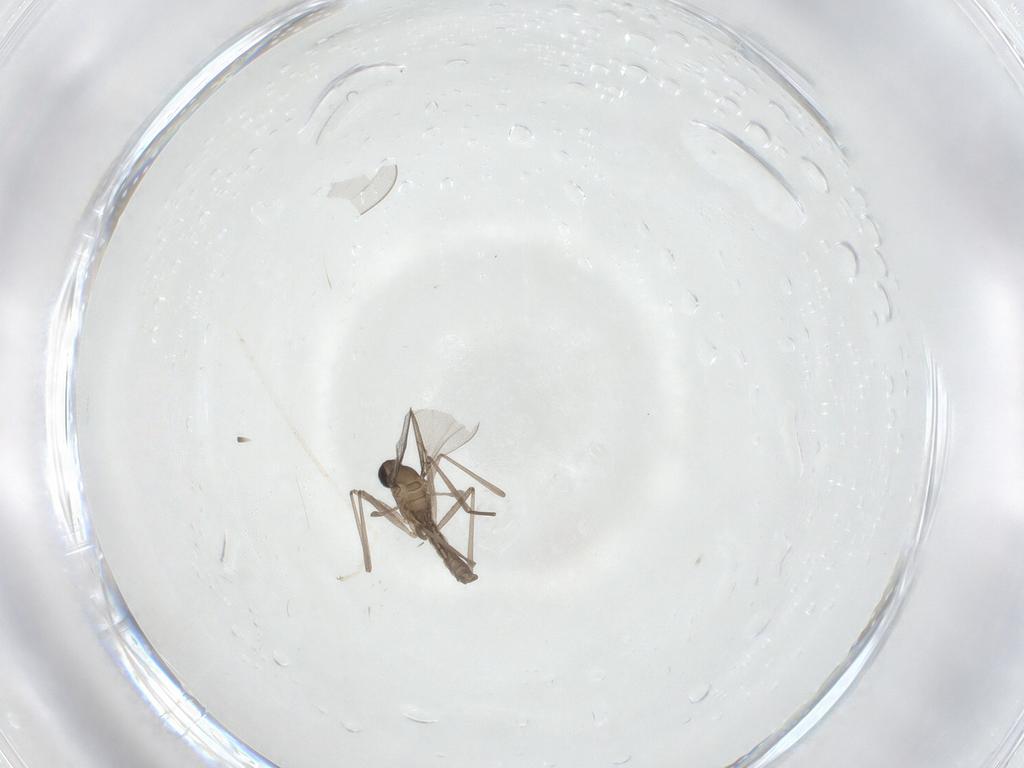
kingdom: Animalia
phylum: Arthropoda
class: Insecta
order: Diptera
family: Cecidomyiidae
